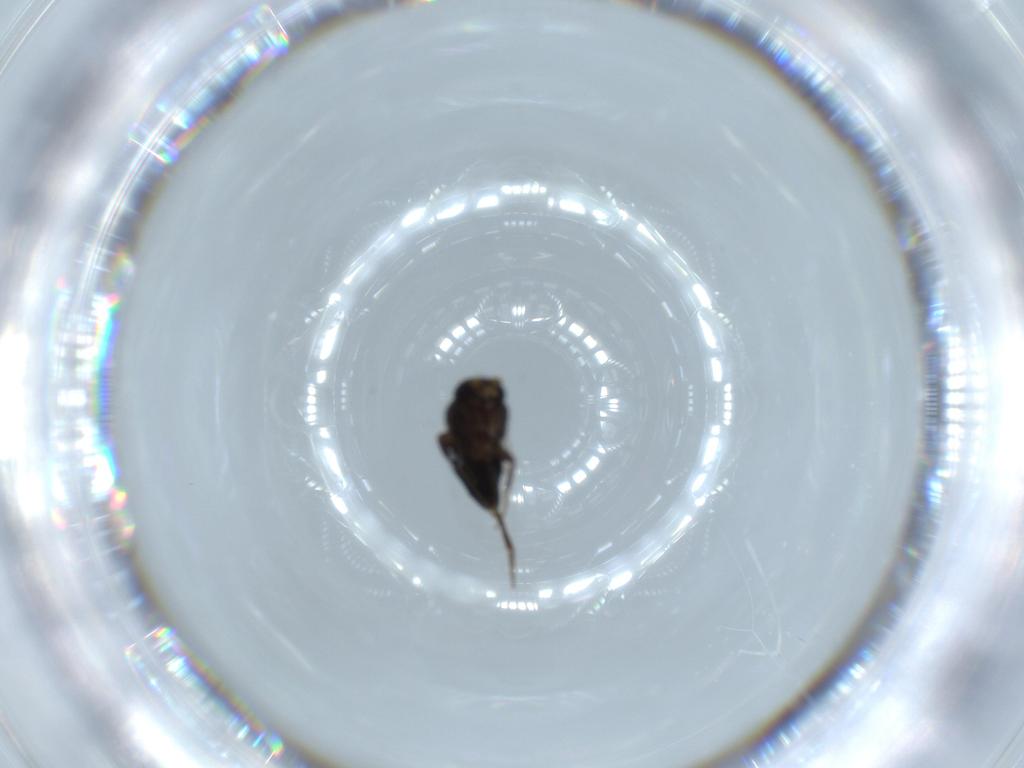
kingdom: Animalia
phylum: Arthropoda
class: Insecta
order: Diptera
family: Phoridae
